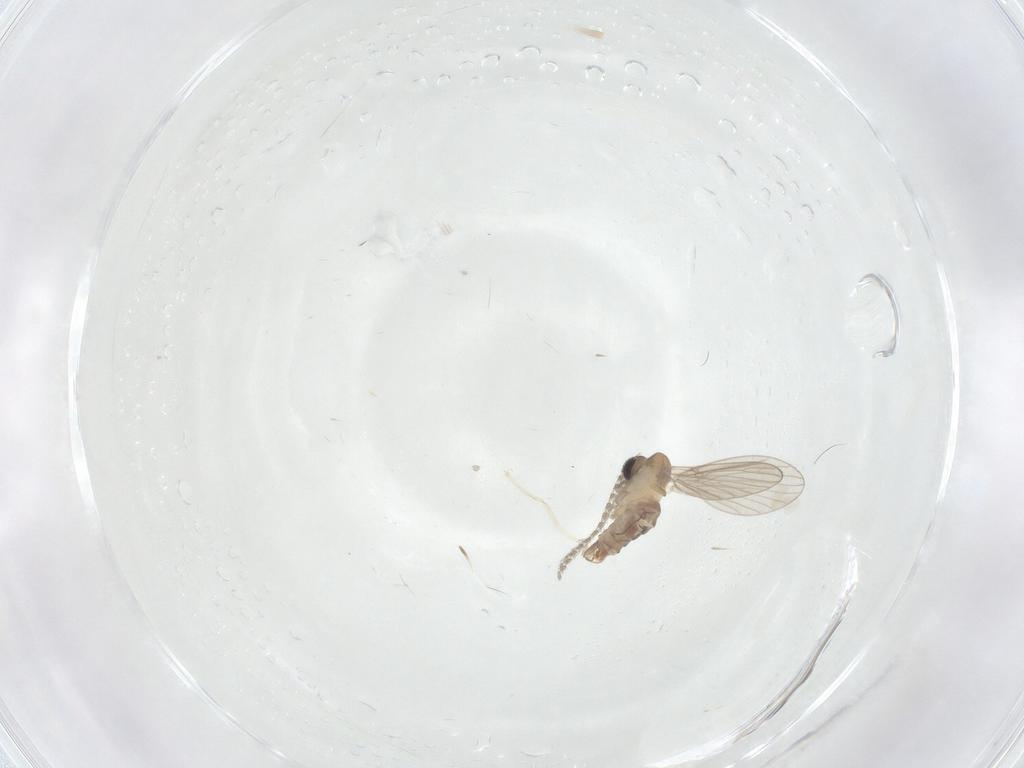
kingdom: Animalia
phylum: Arthropoda
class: Insecta
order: Diptera
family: Psychodidae
